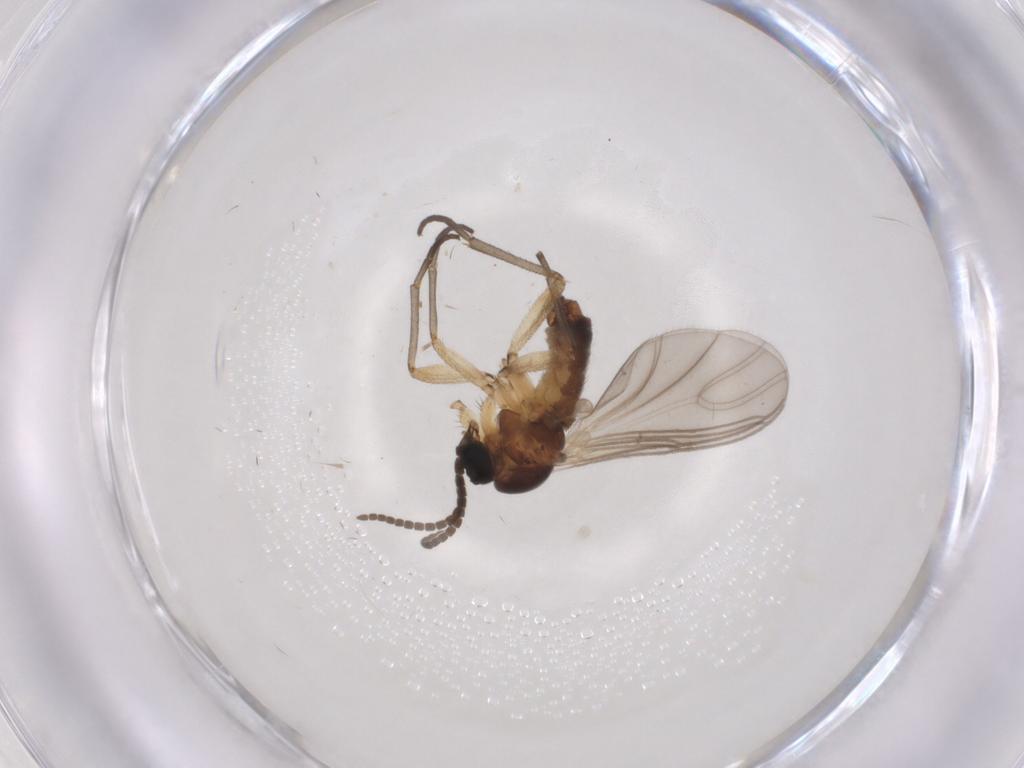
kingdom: Animalia
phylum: Arthropoda
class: Insecta
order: Diptera
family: Sciaridae
